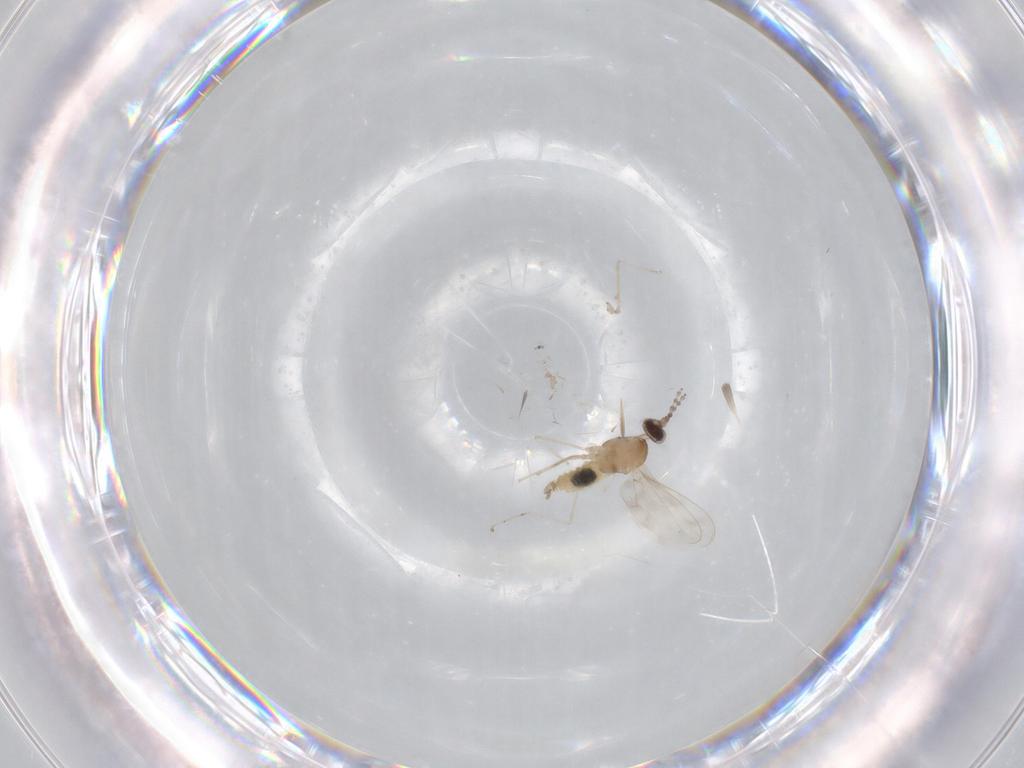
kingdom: Animalia
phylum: Arthropoda
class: Insecta
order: Diptera
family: Cecidomyiidae
